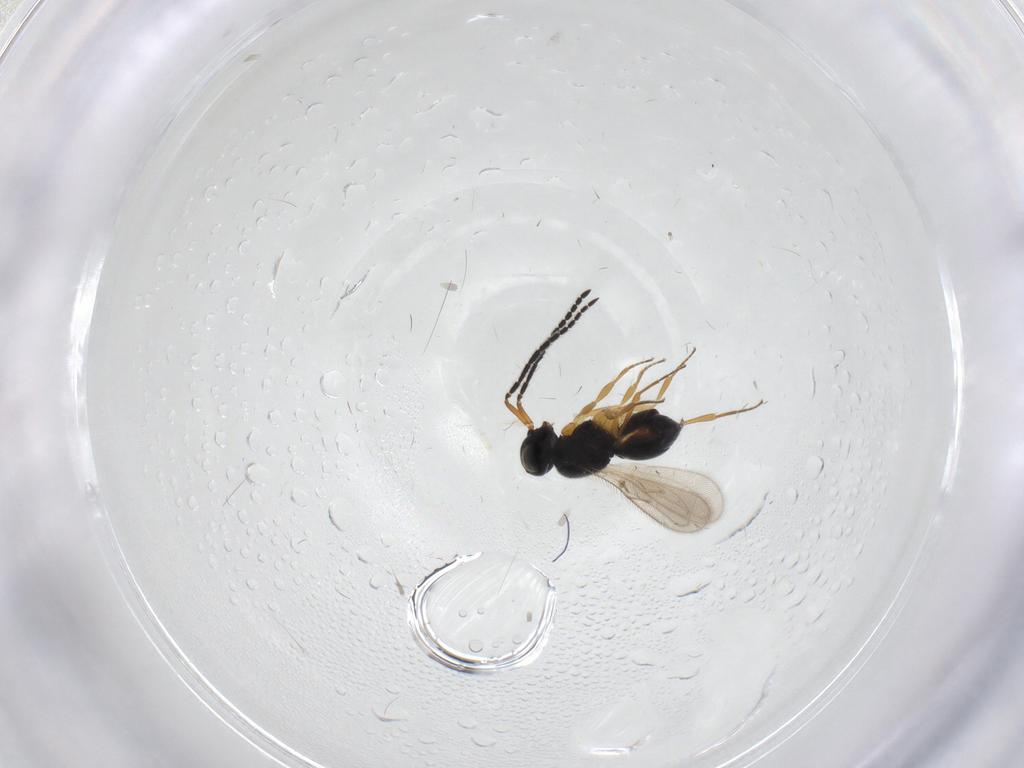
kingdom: Animalia
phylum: Arthropoda
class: Insecta
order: Hymenoptera
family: Scelionidae
